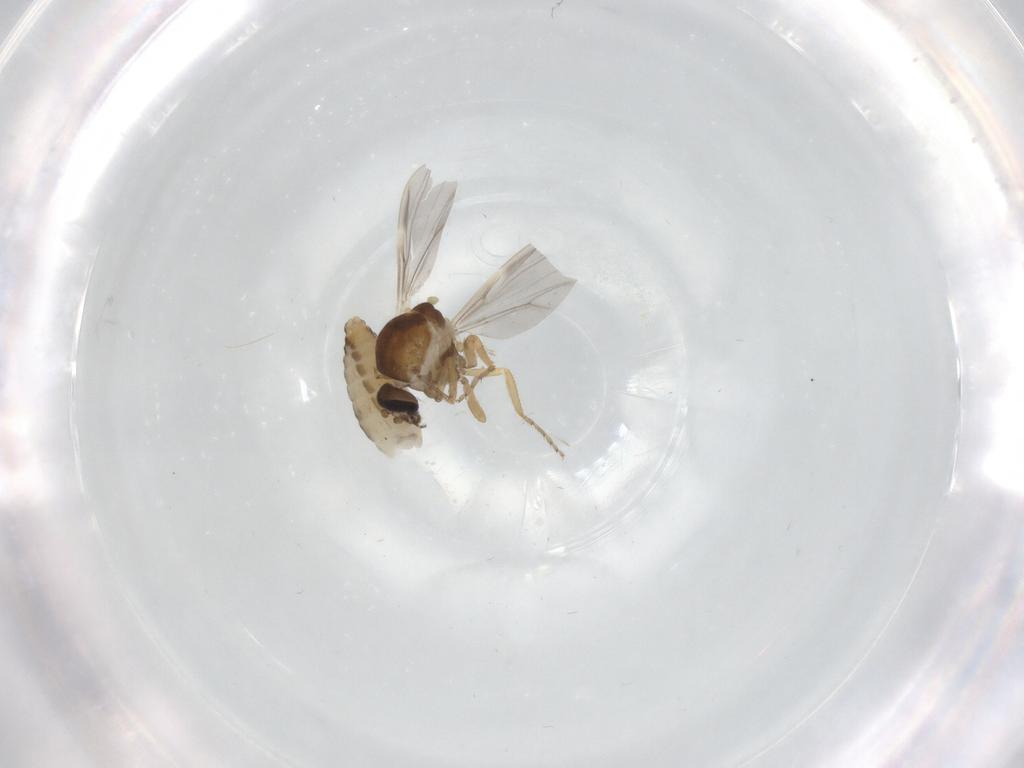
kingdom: Animalia
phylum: Arthropoda
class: Insecta
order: Diptera
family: Ceratopogonidae
